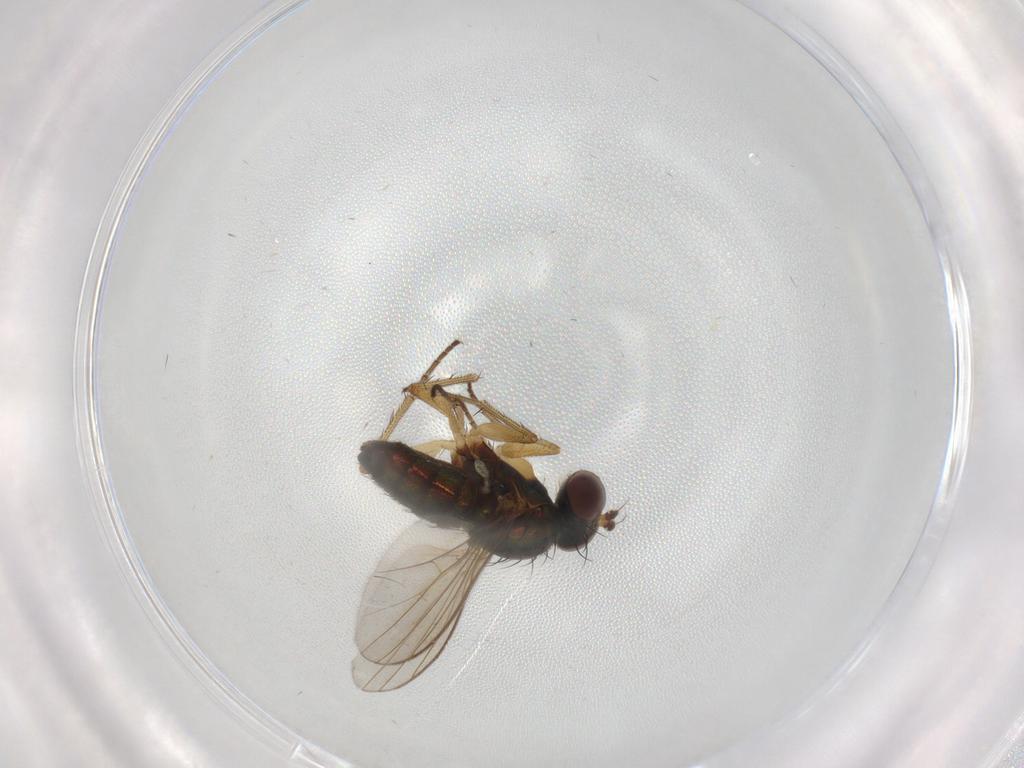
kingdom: Animalia
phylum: Arthropoda
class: Insecta
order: Diptera
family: Dolichopodidae
